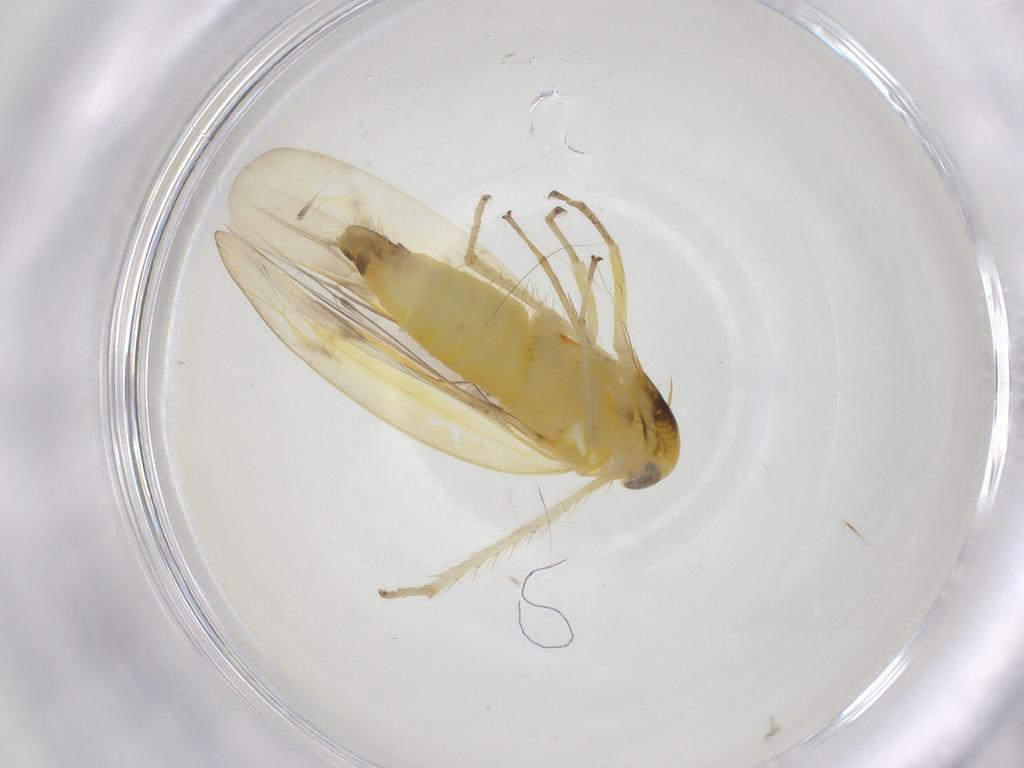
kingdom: Animalia
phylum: Arthropoda
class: Insecta
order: Hemiptera
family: Cicadellidae
